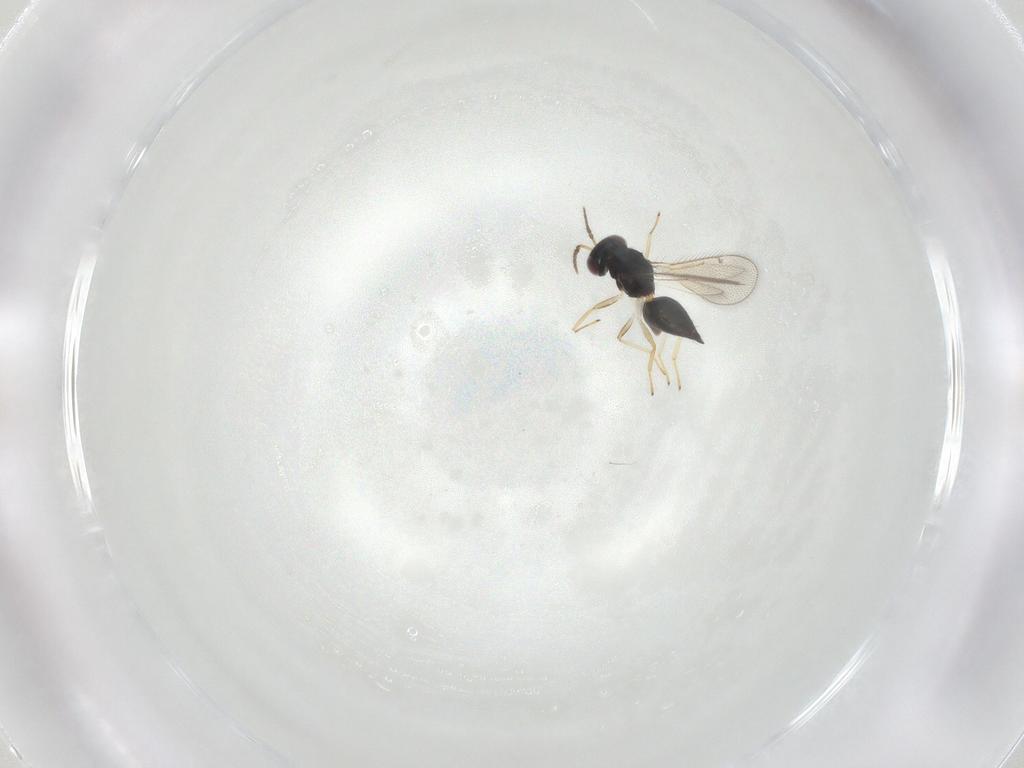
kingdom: Animalia
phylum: Arthropoda
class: Insecta
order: Hymenoptera
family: Eulophidae
